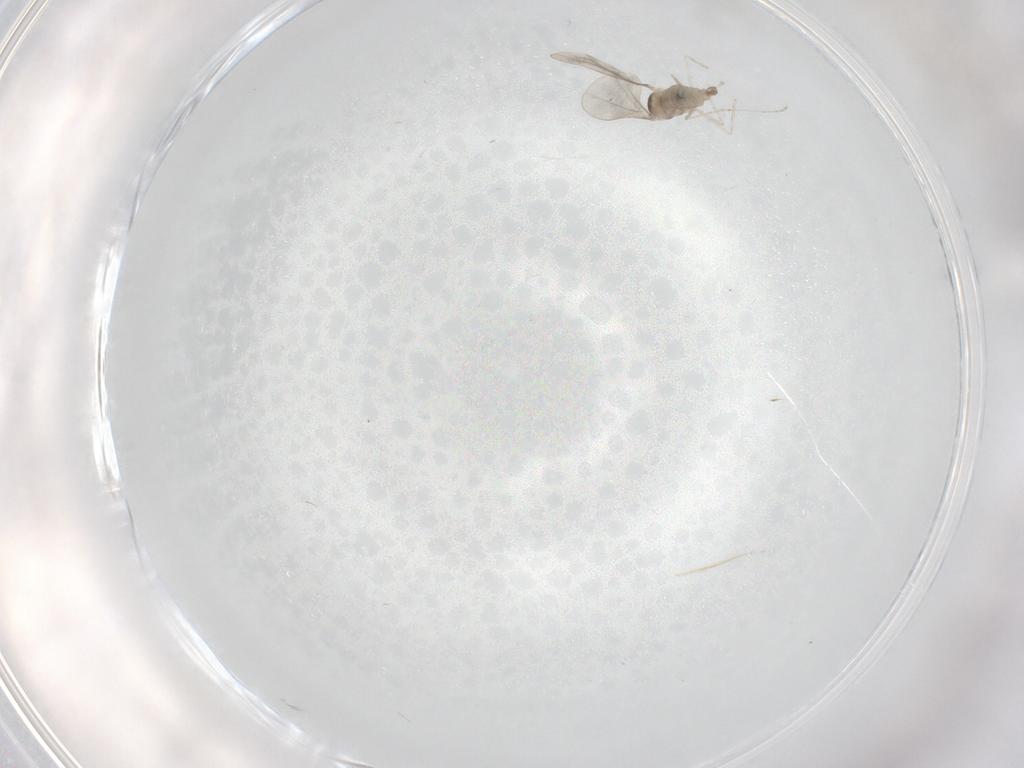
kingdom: Animalia
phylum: Arthropoda
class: Insecta
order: Diptera
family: Cecidomyiidae
